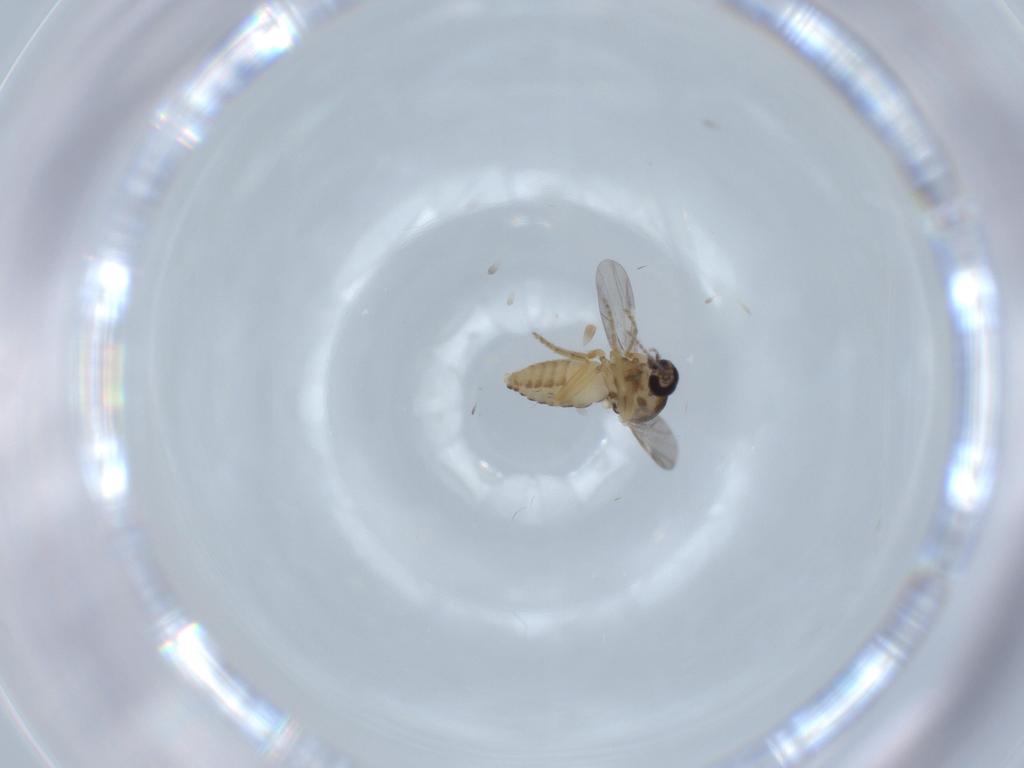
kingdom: Animalia
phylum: Arthropoda
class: Insecta
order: Diptera
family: Ceratopogonidae
